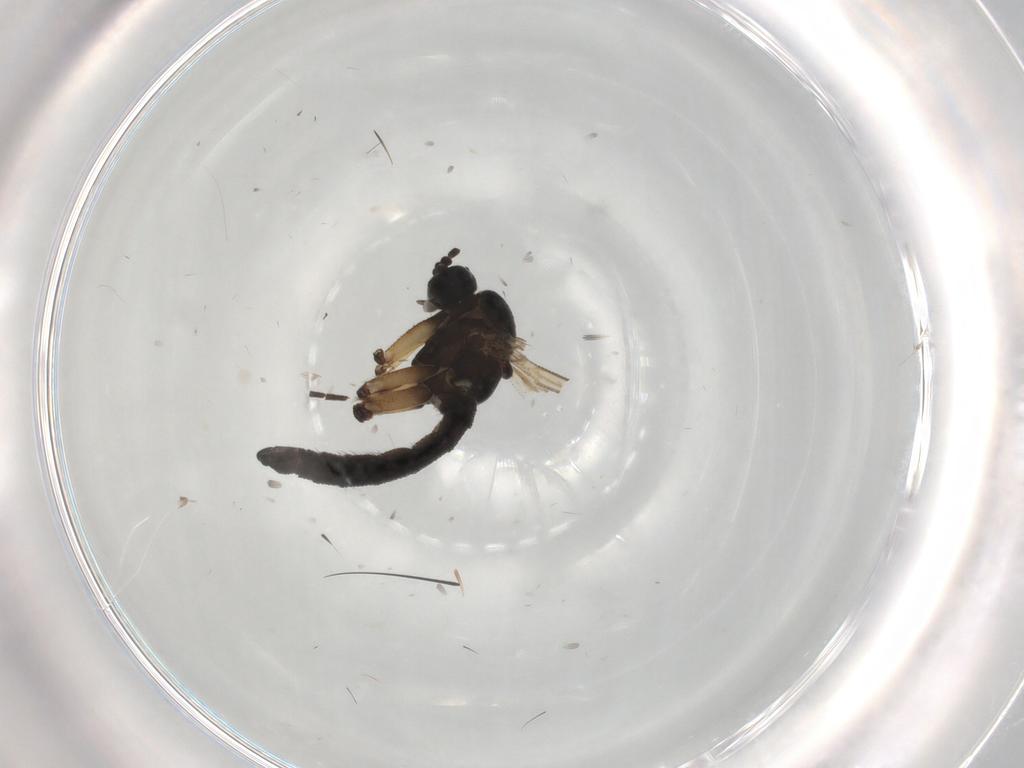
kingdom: Animalia
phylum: Arthropoda
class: Insecta
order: Diptera
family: Sciaridae
